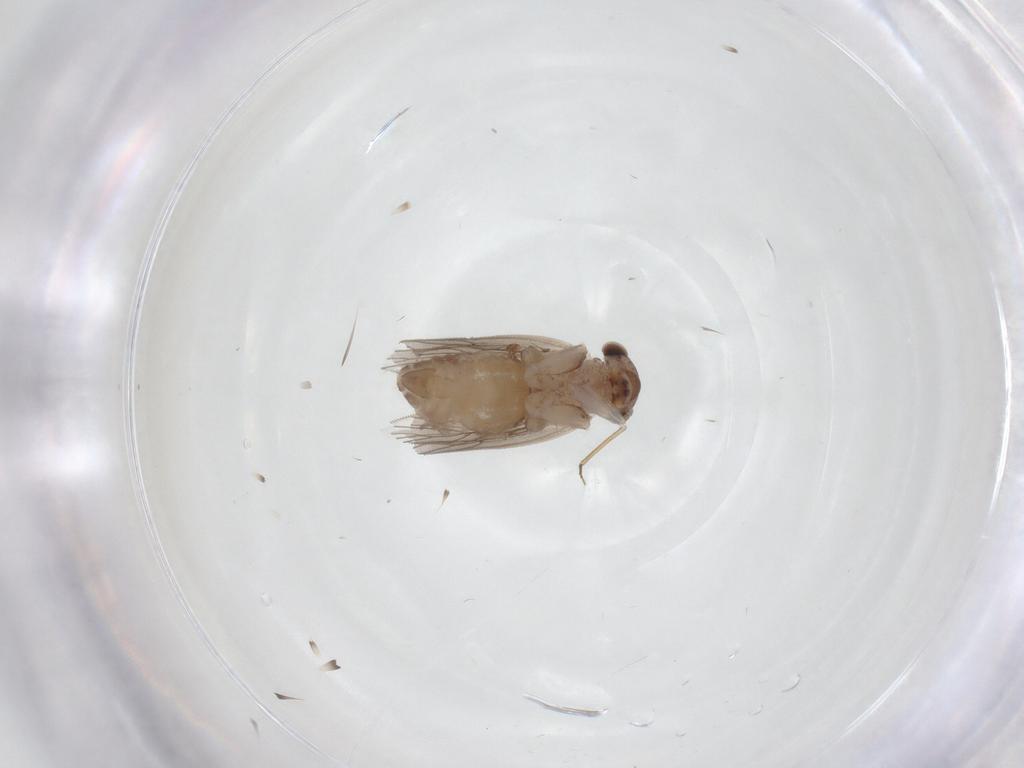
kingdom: Animalia
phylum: Arthropoda
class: Insecta
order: Psocodea
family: Lepidopsocidae
